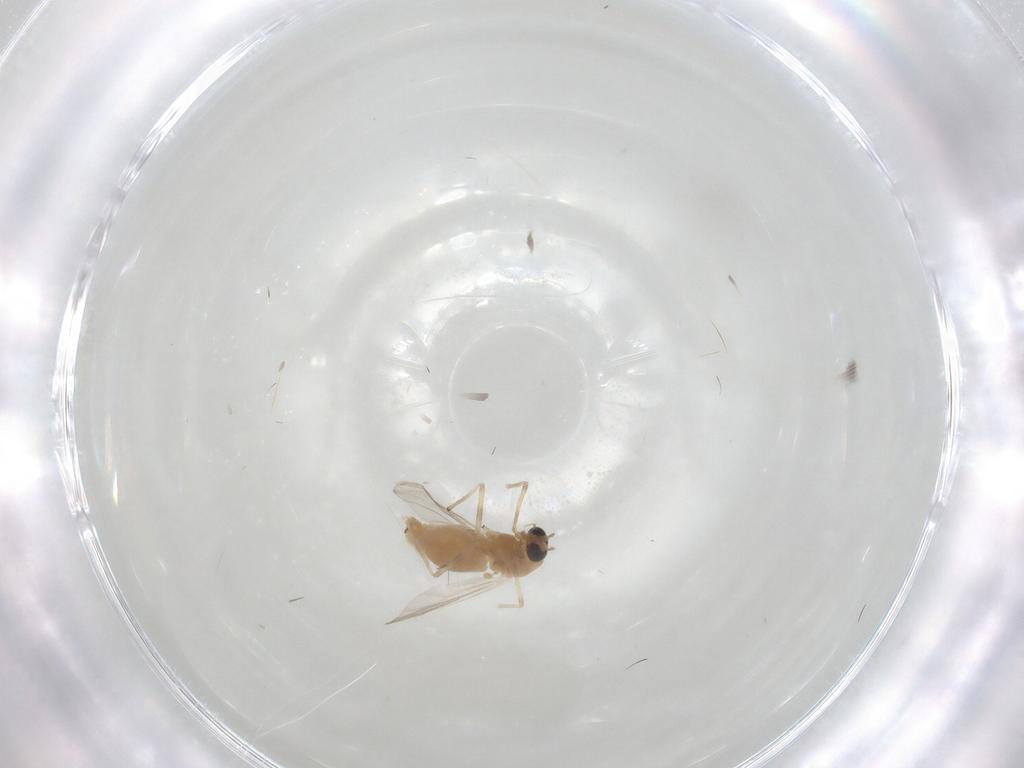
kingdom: Animalia
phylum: Arthropoda
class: Insecta
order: Diptera
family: Chironomidae
